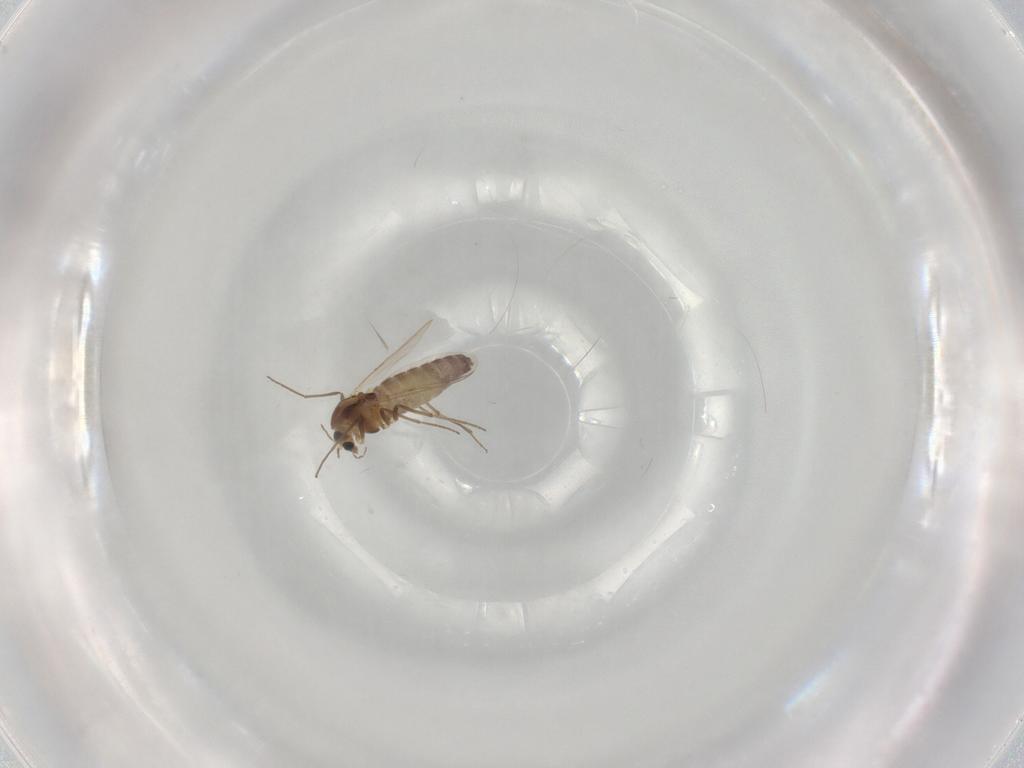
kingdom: Animalia
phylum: Arthropoda
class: Insecta
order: Diptera
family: Chironomidae
